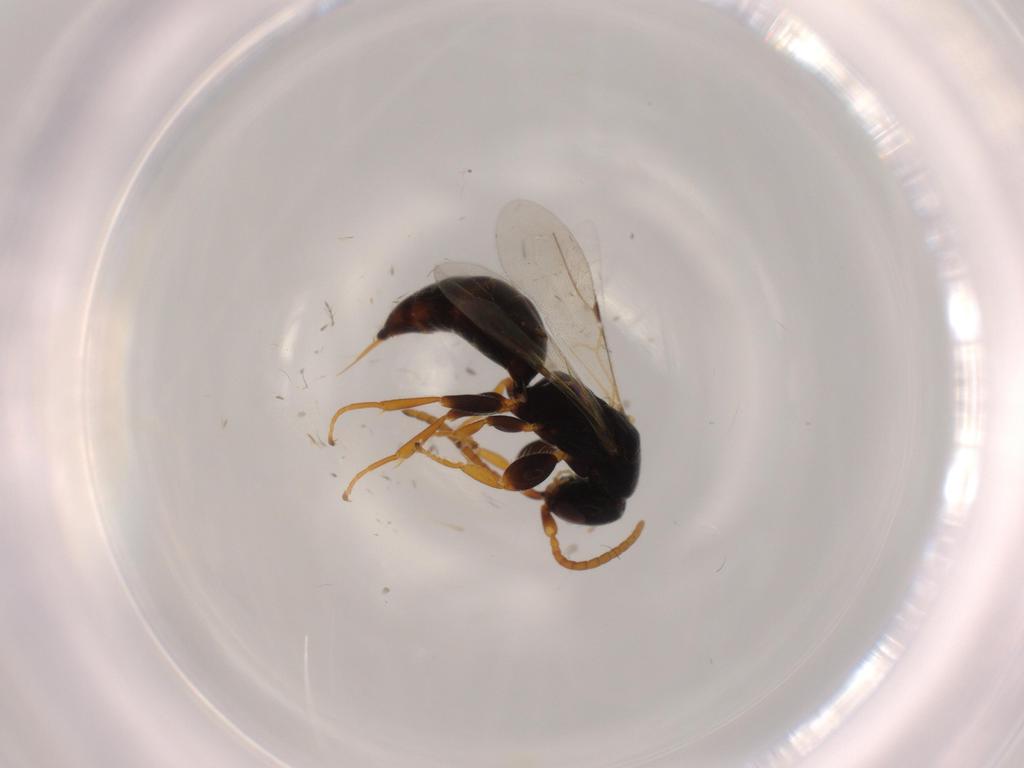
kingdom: Animalia
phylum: Arthropoda
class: Insecta
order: Hymenoptera
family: Bethylidae
